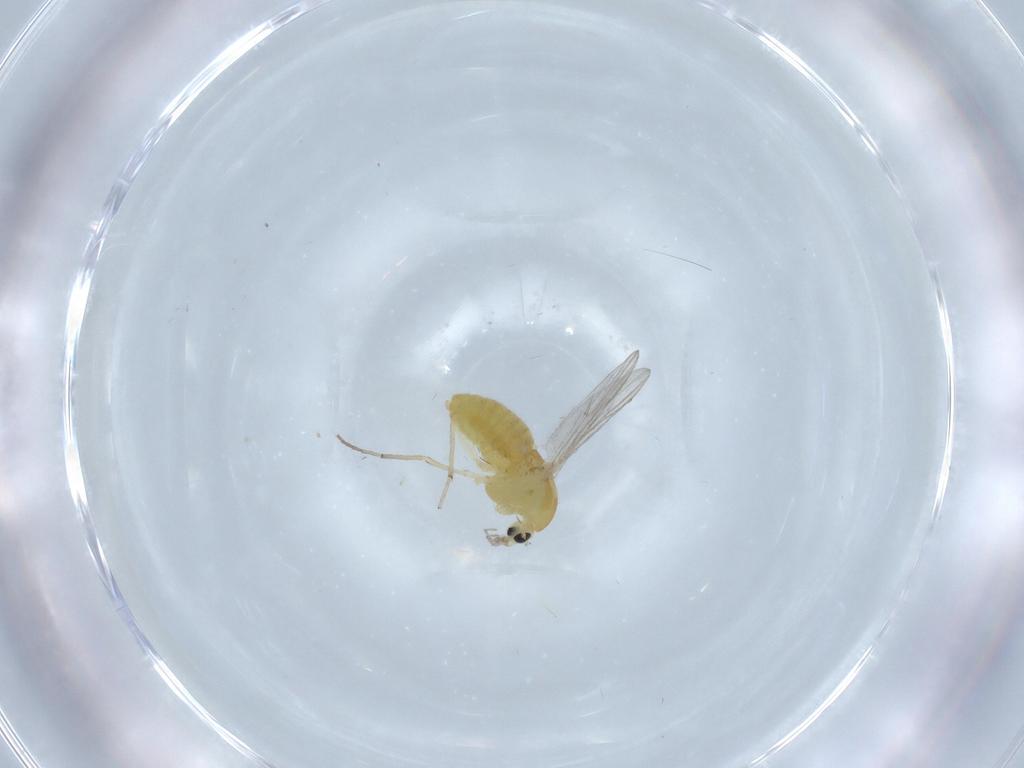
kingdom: Animalia
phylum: Arthropoda
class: Insecta
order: Diptera
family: Chironomidae
